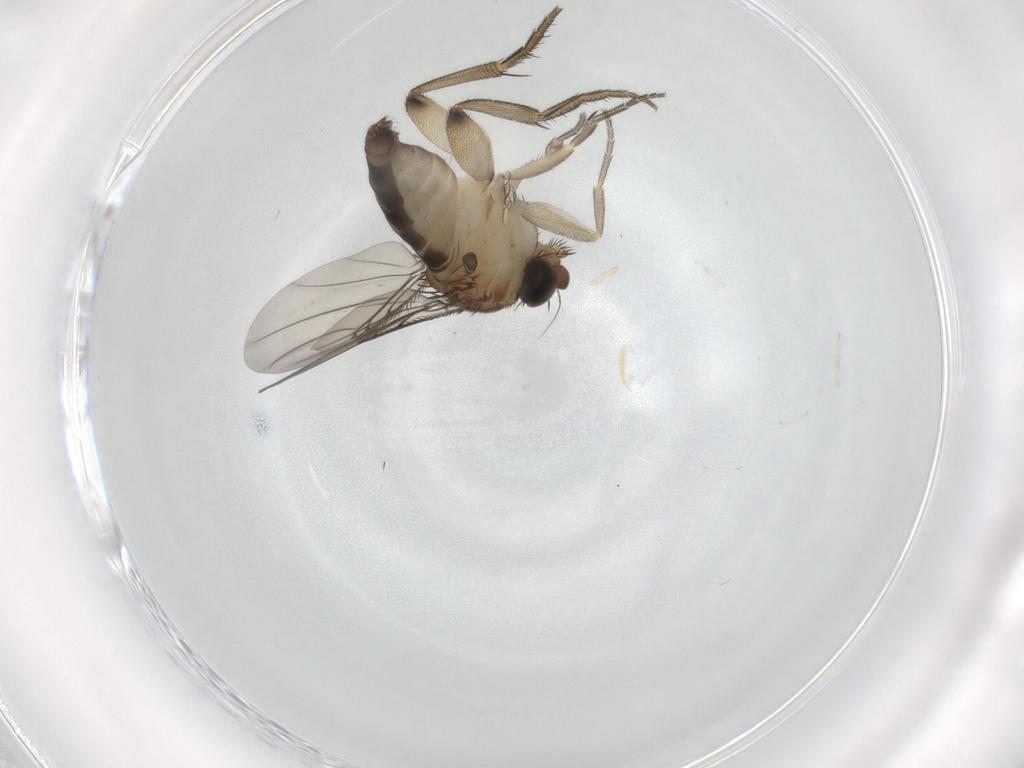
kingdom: Animalia
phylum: Arthropoda
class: Insecta
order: Diptera
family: Phoridae
